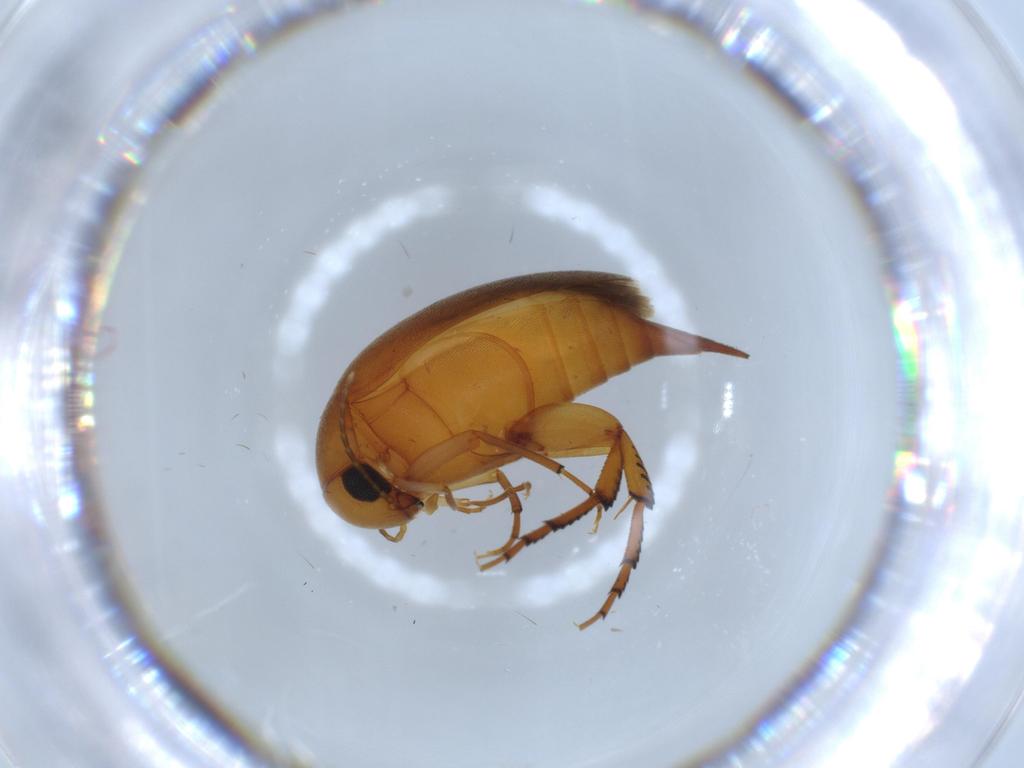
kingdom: Animalia
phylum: Arthropoda
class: Insecta
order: Coleoptera
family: Mordellidae
